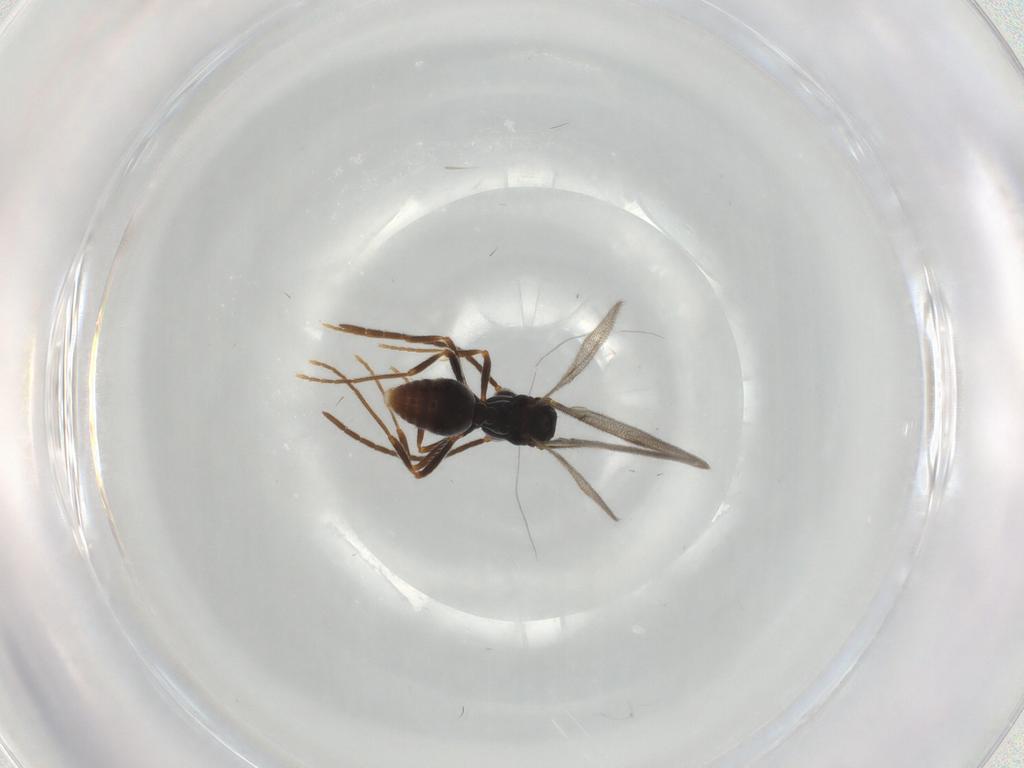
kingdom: Animalia
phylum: Arthropoda
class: Insecta
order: Hymenoptera
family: Formicidae
